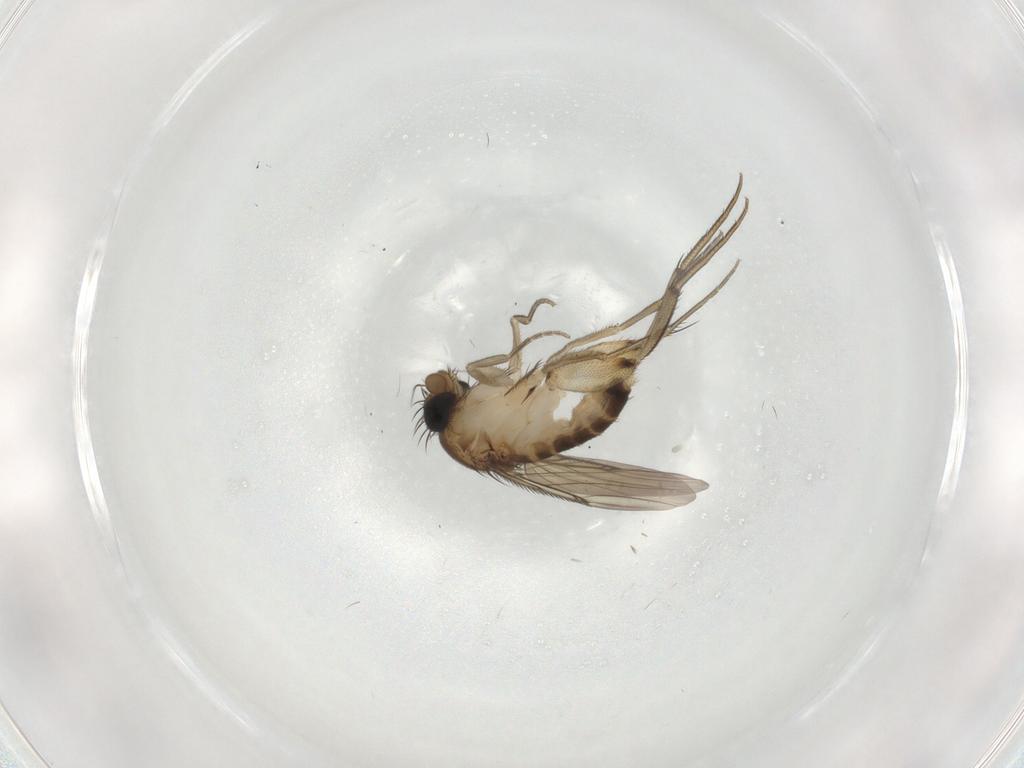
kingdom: Animalia
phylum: Arthropoda
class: Insecta
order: Diptera
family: Phoridae
